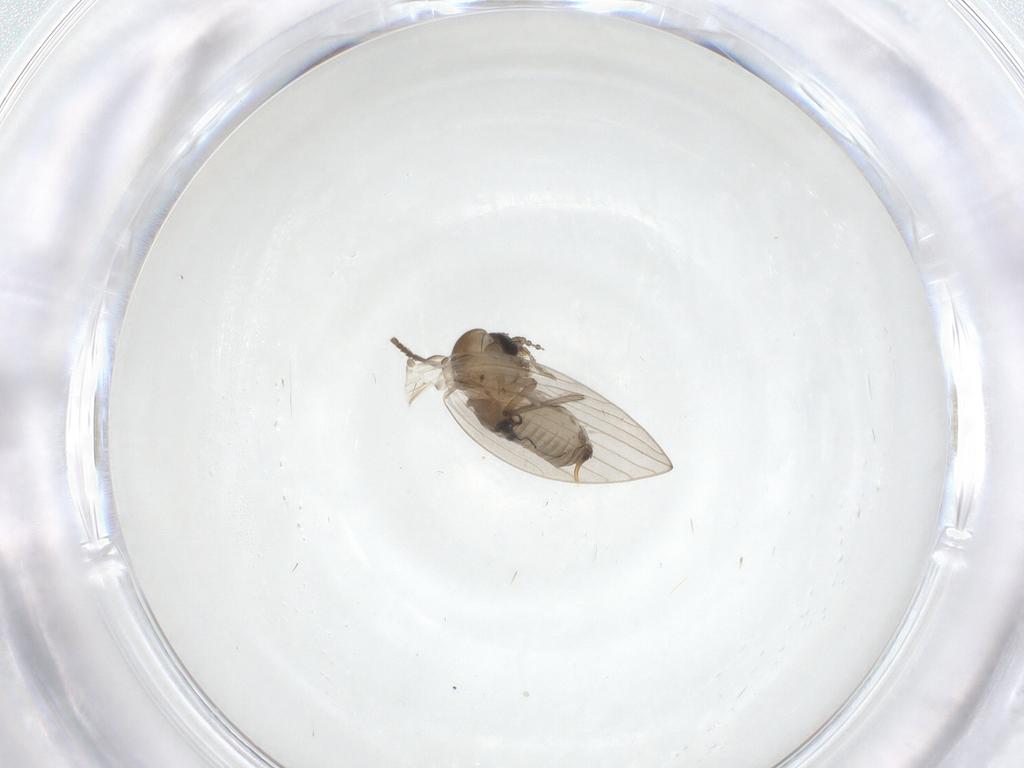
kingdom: Animalia
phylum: Arthropoda
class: Insecta
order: Diptera
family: Psychodidae
